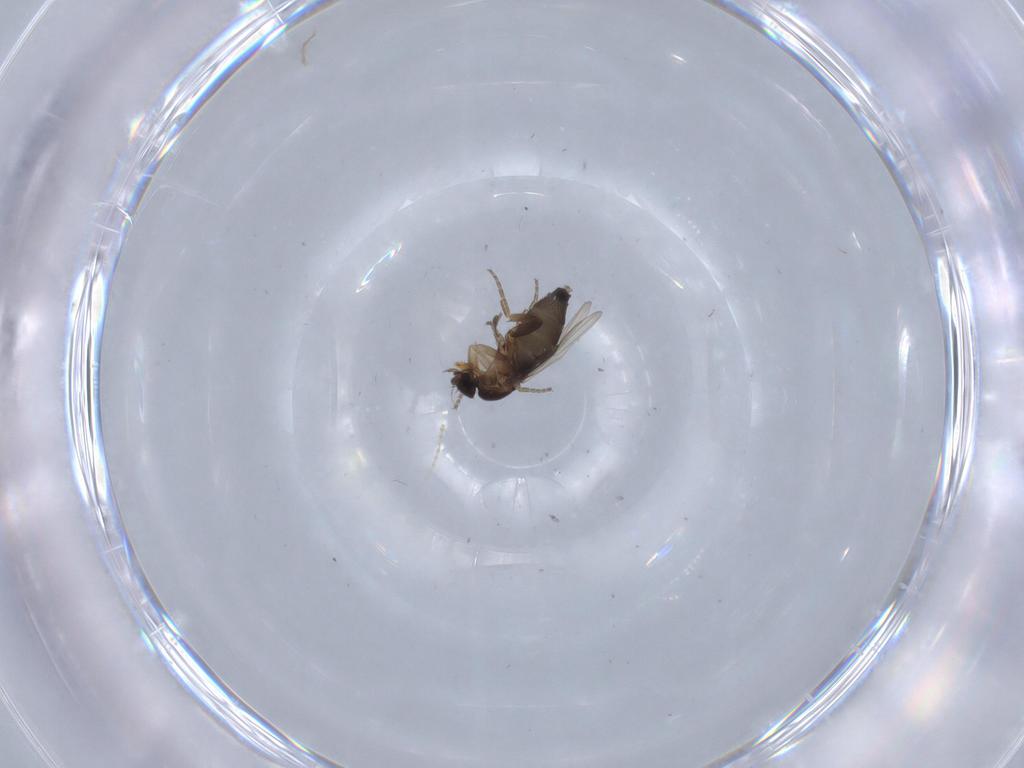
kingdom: Animalia
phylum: Arthropoda
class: Insecta
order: Diptera
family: Phoridae
